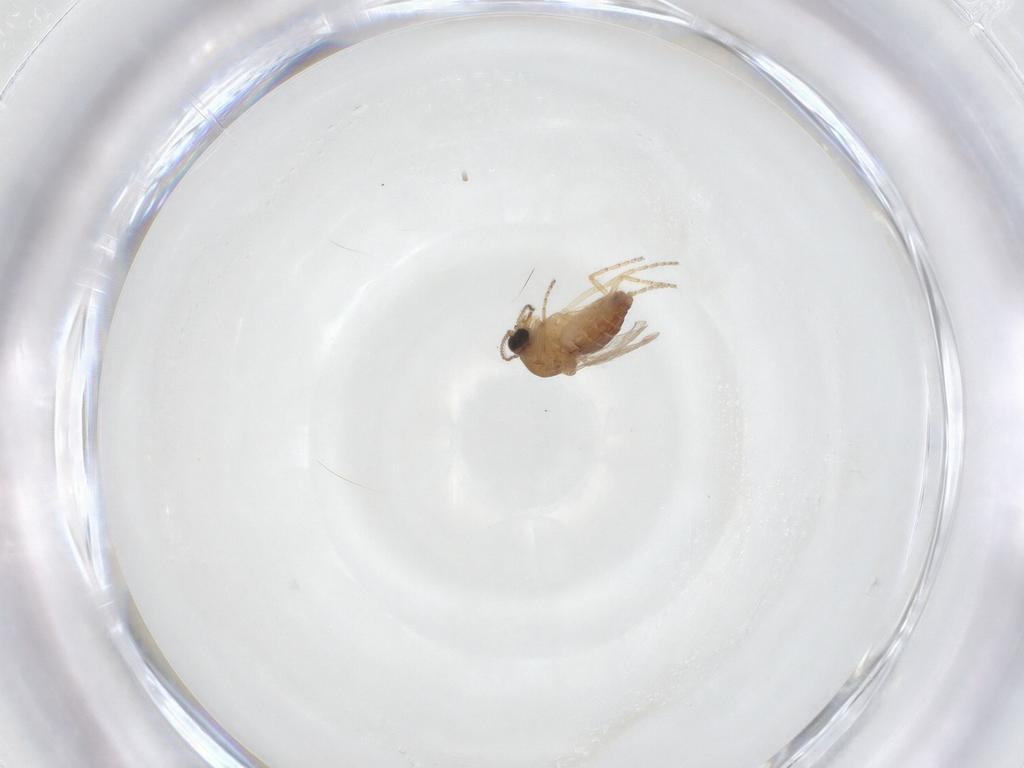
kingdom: Animalia
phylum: Arthropoda
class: Insecta
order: Diptera
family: Ceratopogonidae
